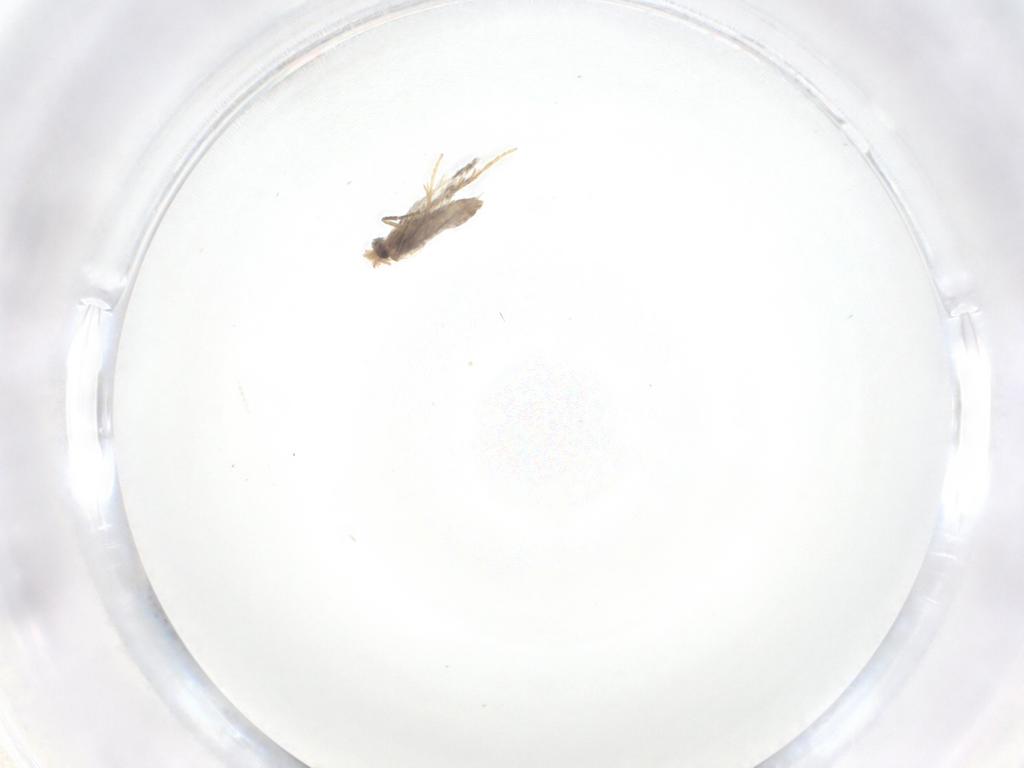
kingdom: Animalia
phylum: Arthropoda
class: Insecta
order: Lepidoptera
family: Nepticulidae
